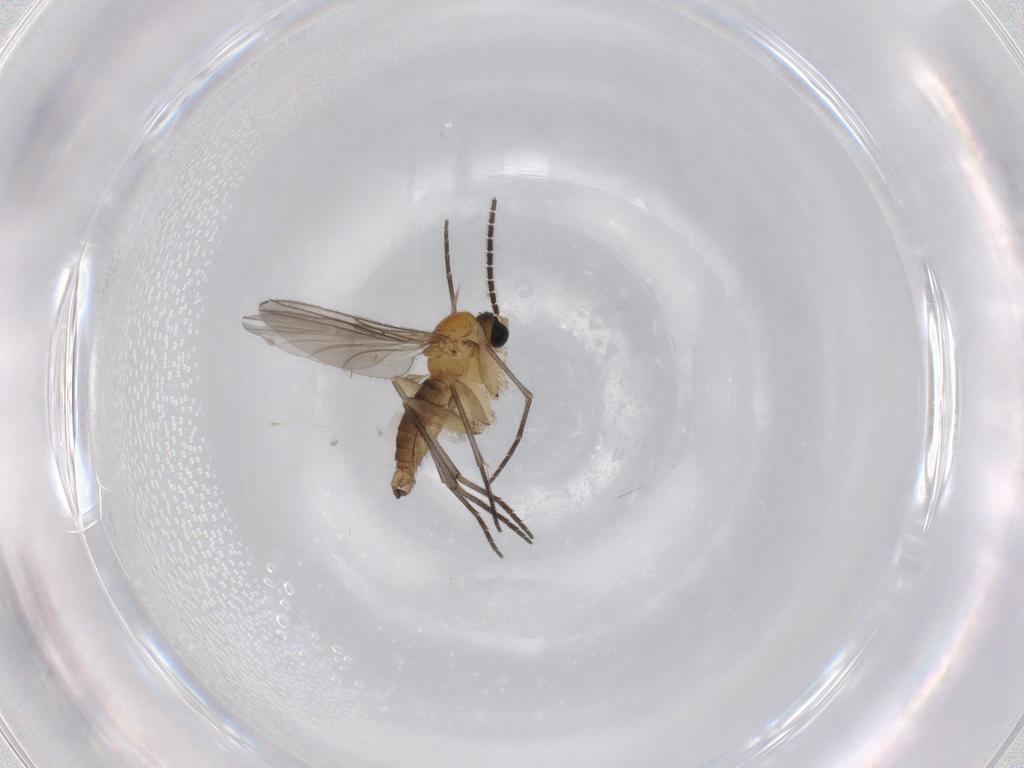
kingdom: Animalia
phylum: Arthropoda
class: Insecta
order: Diptera
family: Sciaridae
